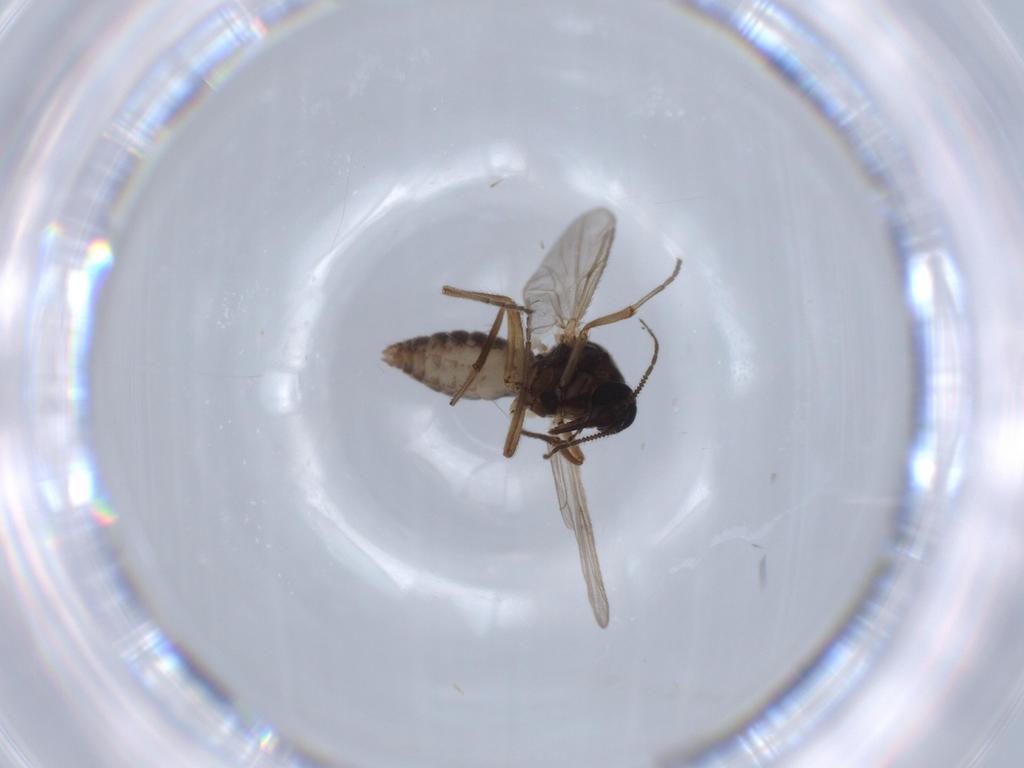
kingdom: Animalia
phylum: Arthropoda
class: Insecta
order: Diptera
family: Ceratopogonidae
